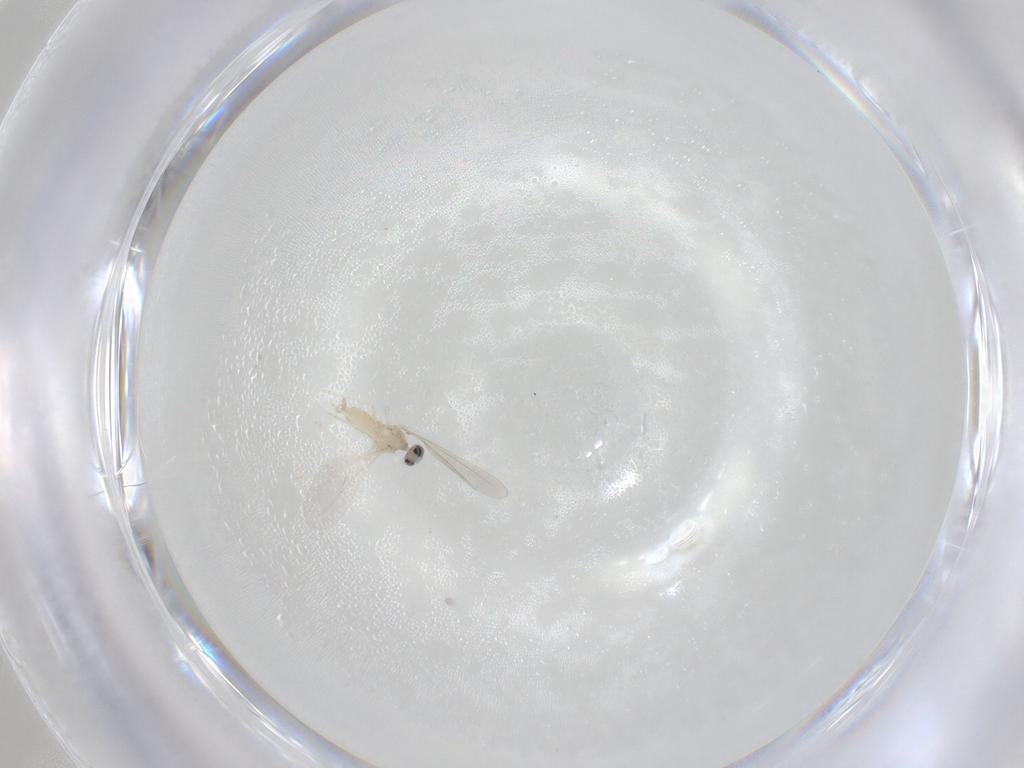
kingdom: Animalia
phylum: Arthropoda
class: Insecta
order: Diptera
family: Cecidomyiidae
